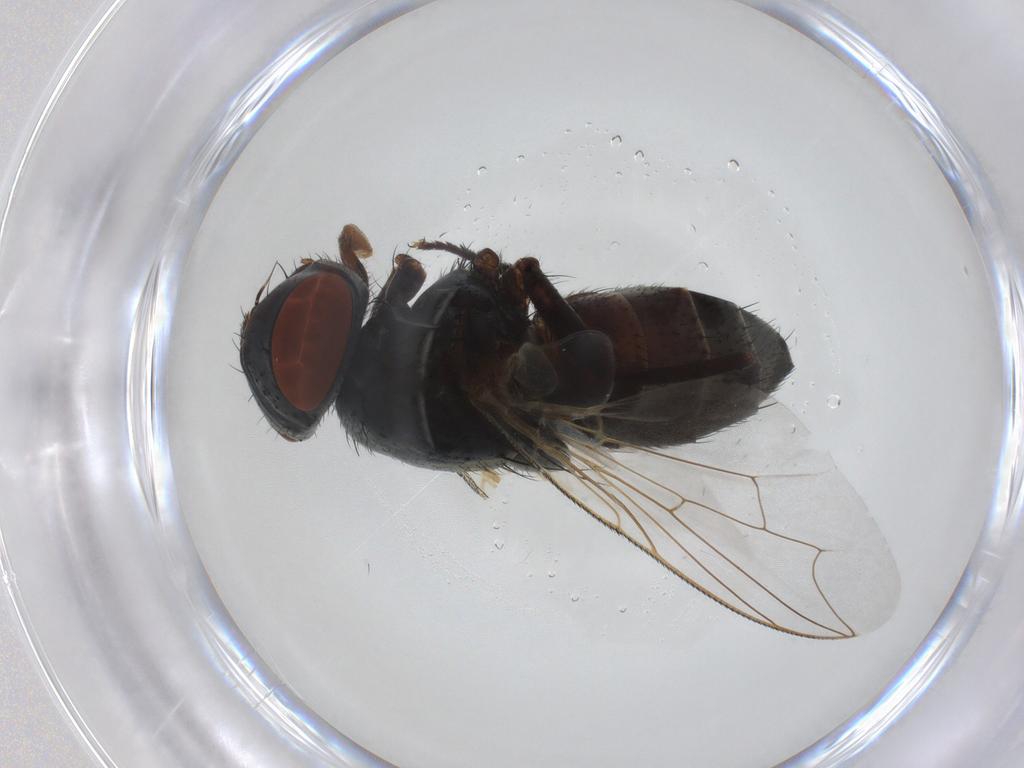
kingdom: Animalia
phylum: Arthropoda
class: Insecta
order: Diptera
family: Sarcophagidae
